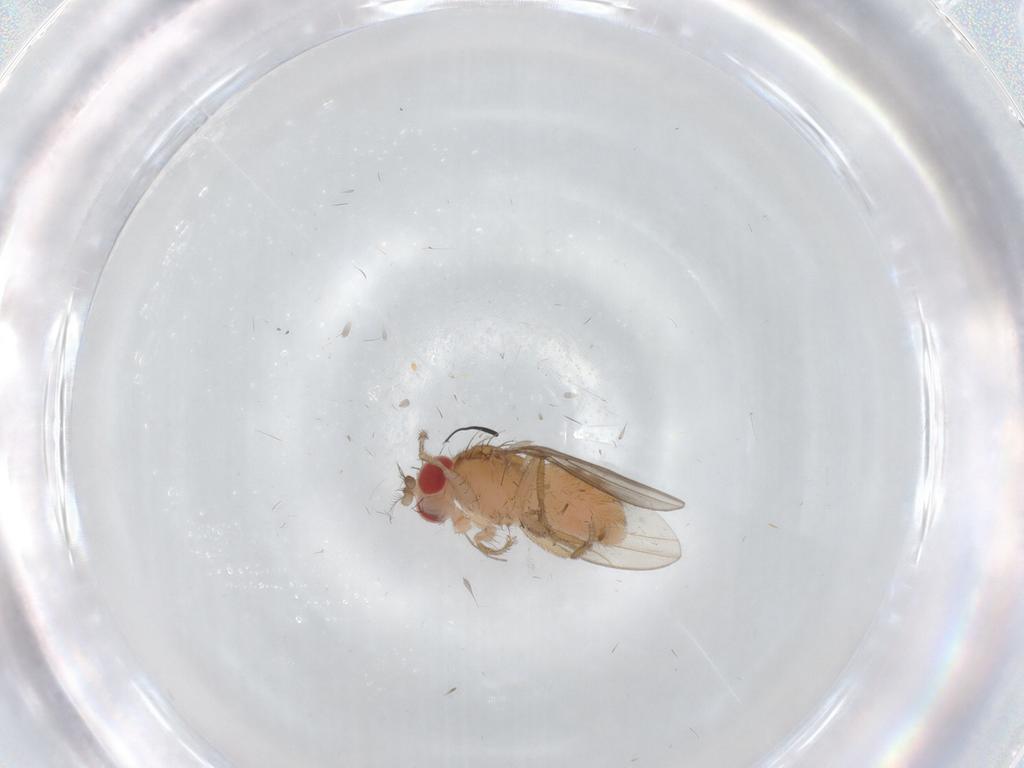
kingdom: Animalia
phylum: Arthropoda
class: Insecta
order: Diptera
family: Drosophilidae
